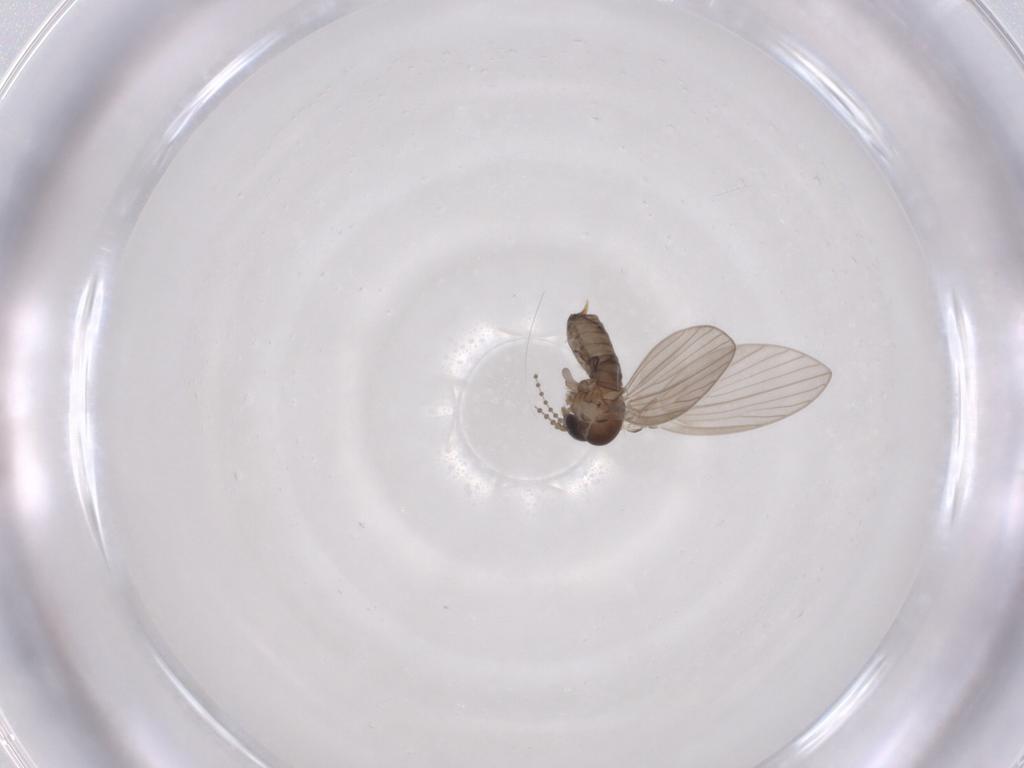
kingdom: Animalia
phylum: Arthropoda
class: Insecta
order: Diptera
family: Psychodidae
